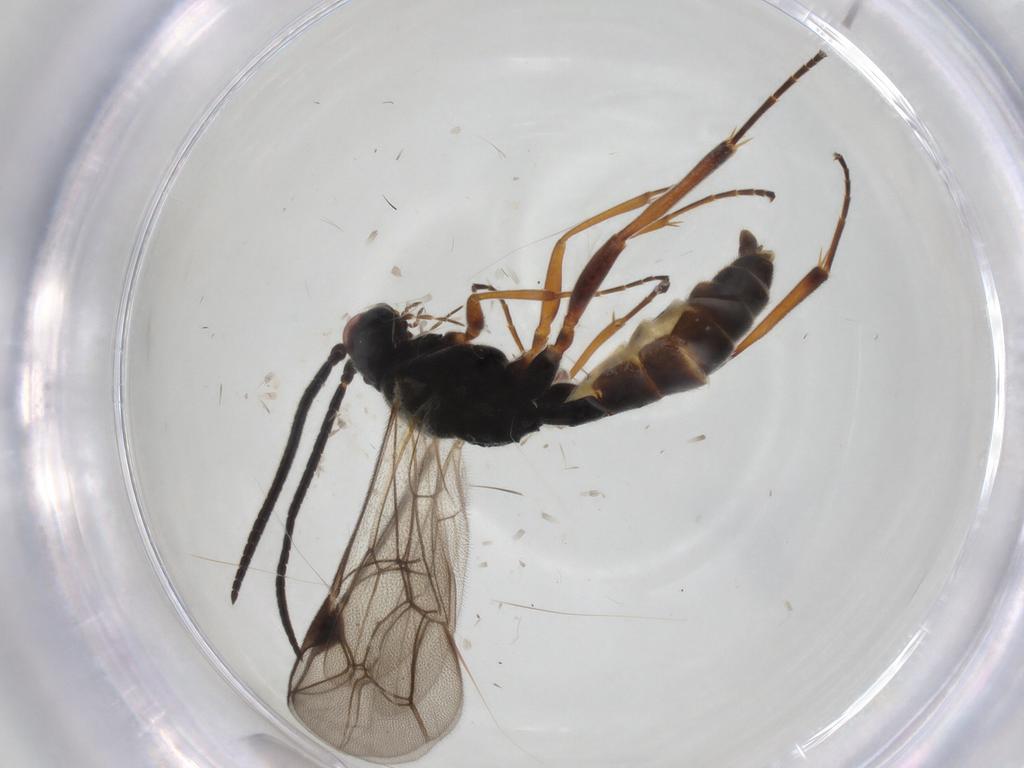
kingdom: Animalia
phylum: Arthropoda
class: Insecta
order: Hymenoptera
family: Ichneumonidae
